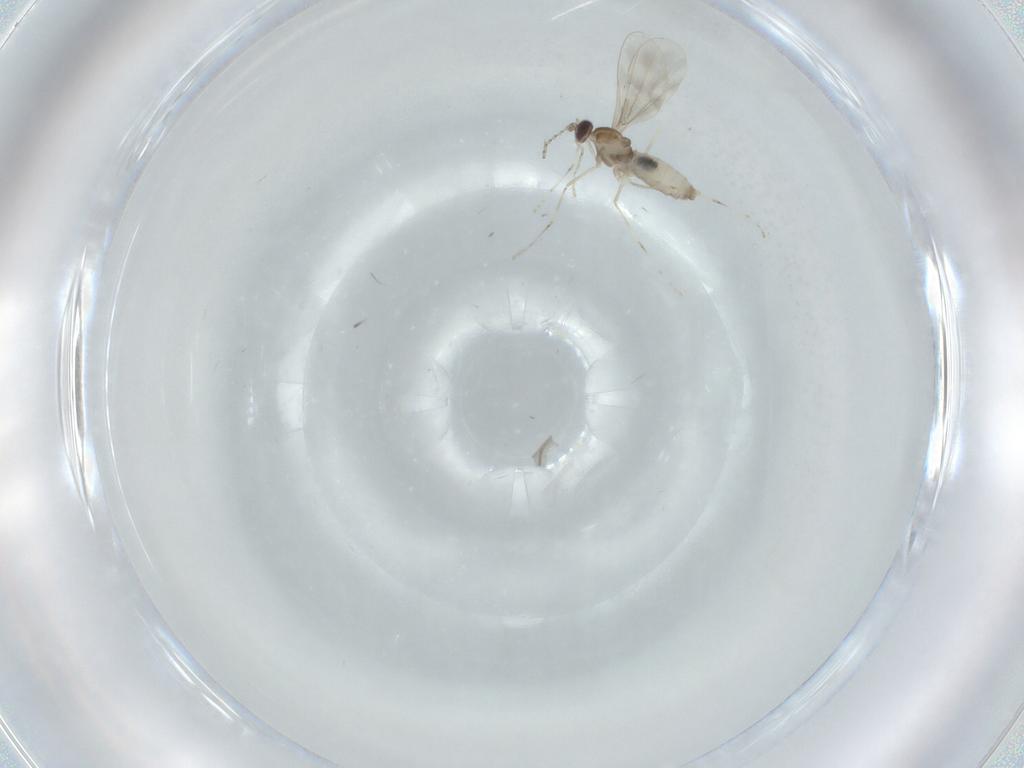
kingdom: Animalia
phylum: Arthropoda
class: Insecta
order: Diptera
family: Cecidomyiidae
